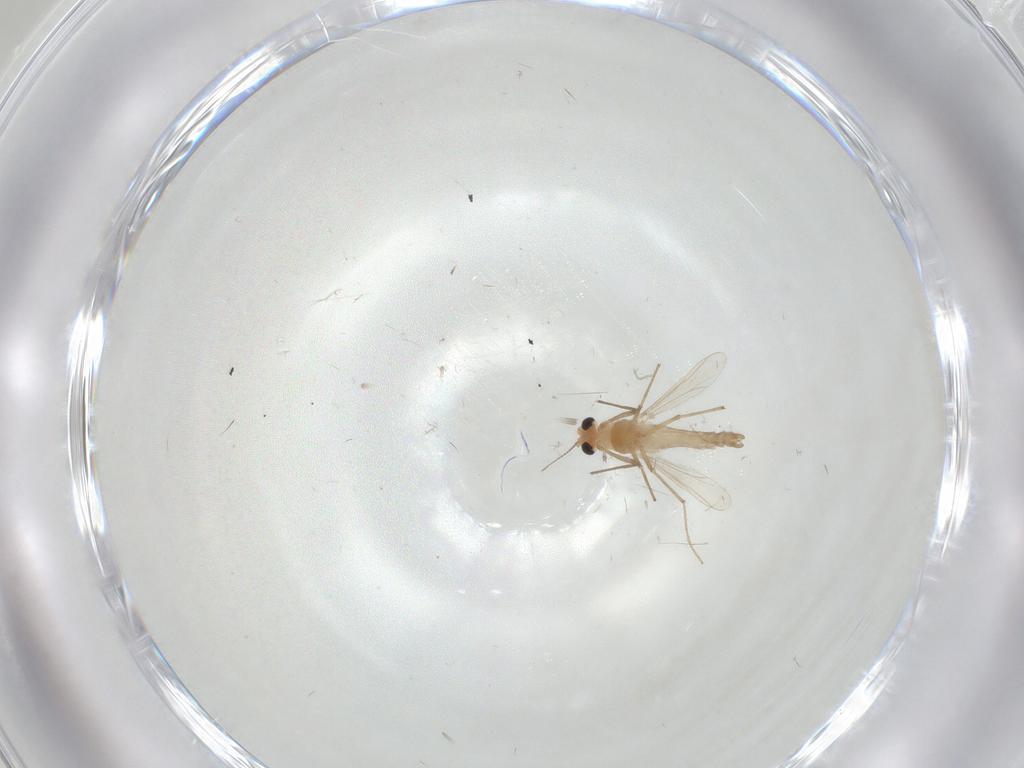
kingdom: Animalia
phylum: Arthropoda
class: Insecta
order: Diptera
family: Chironomidae
